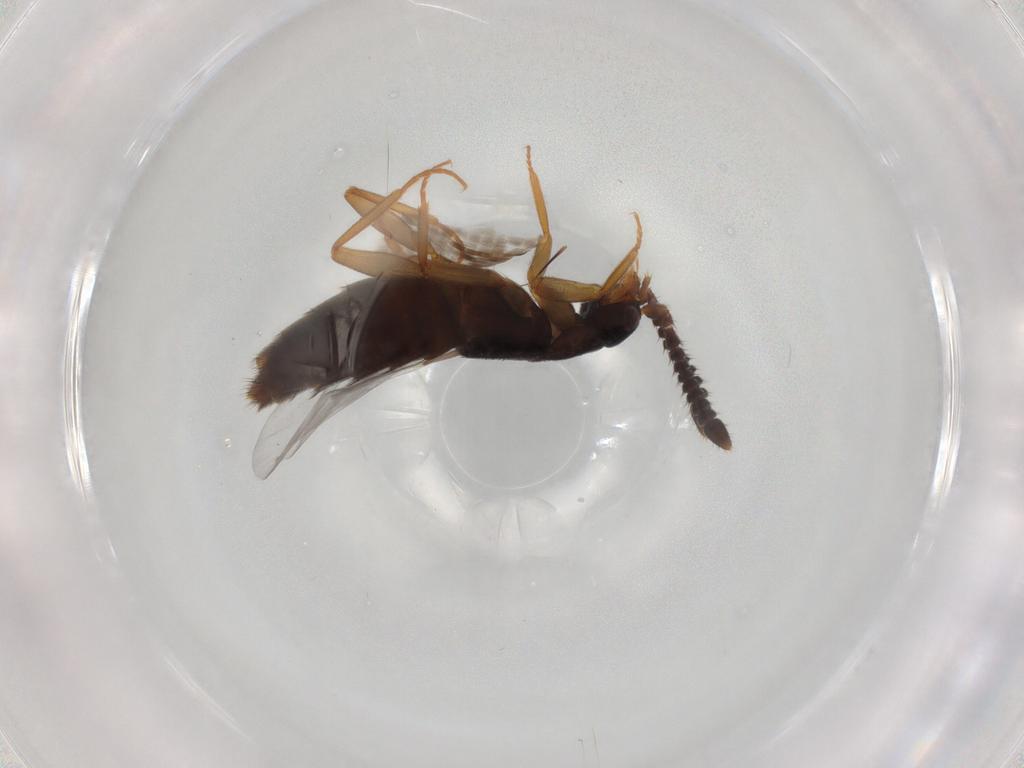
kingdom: Animalia
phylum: Arthropoda
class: Insecta
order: Coleoptera
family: Staphylinidae
